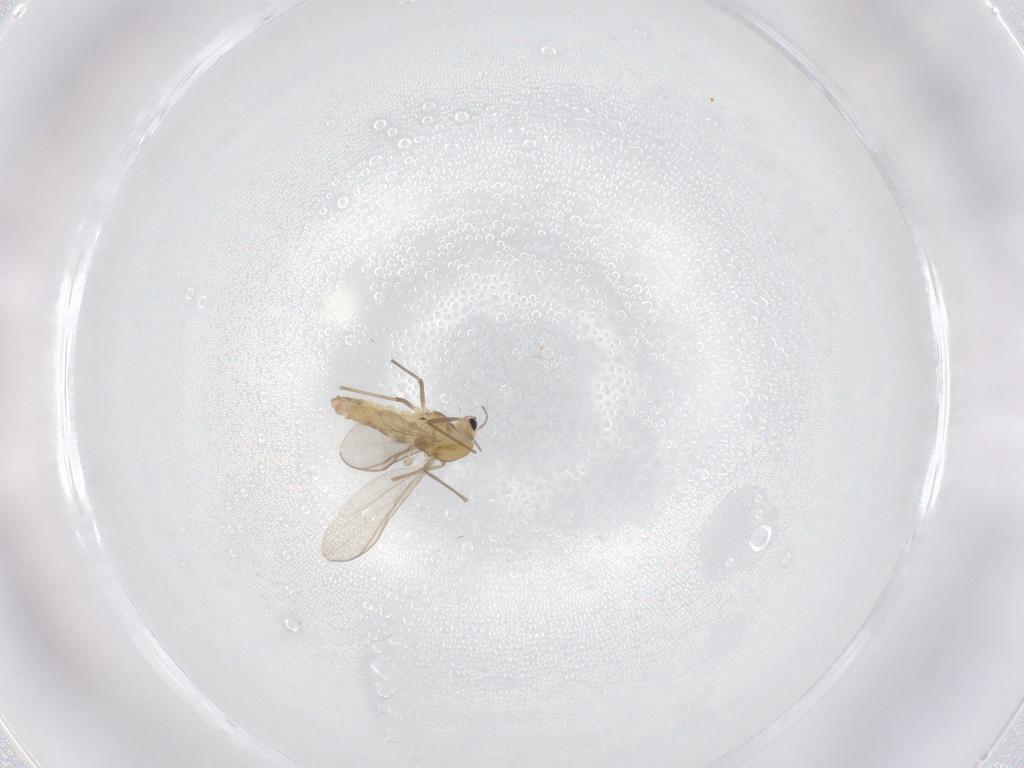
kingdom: Animalia
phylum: Arthropoda
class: Insecta
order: Diptera
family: Chironomidae
